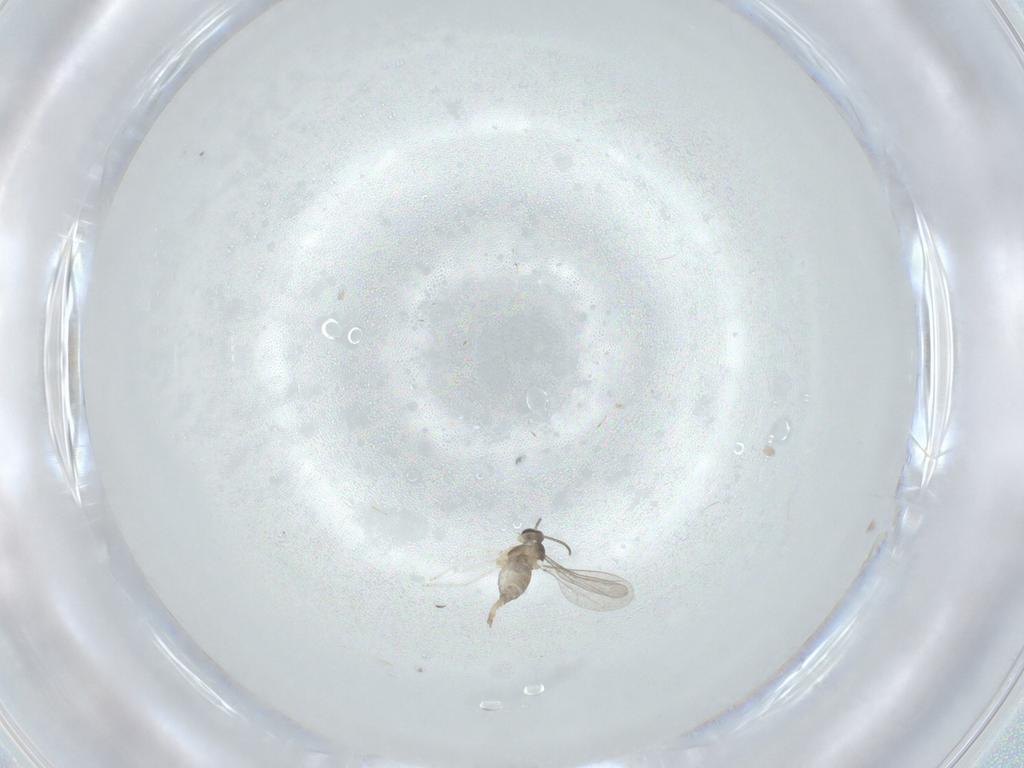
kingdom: Animalia
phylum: Arthropoda
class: Insecta
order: Diptera
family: Cecidomyiidae
